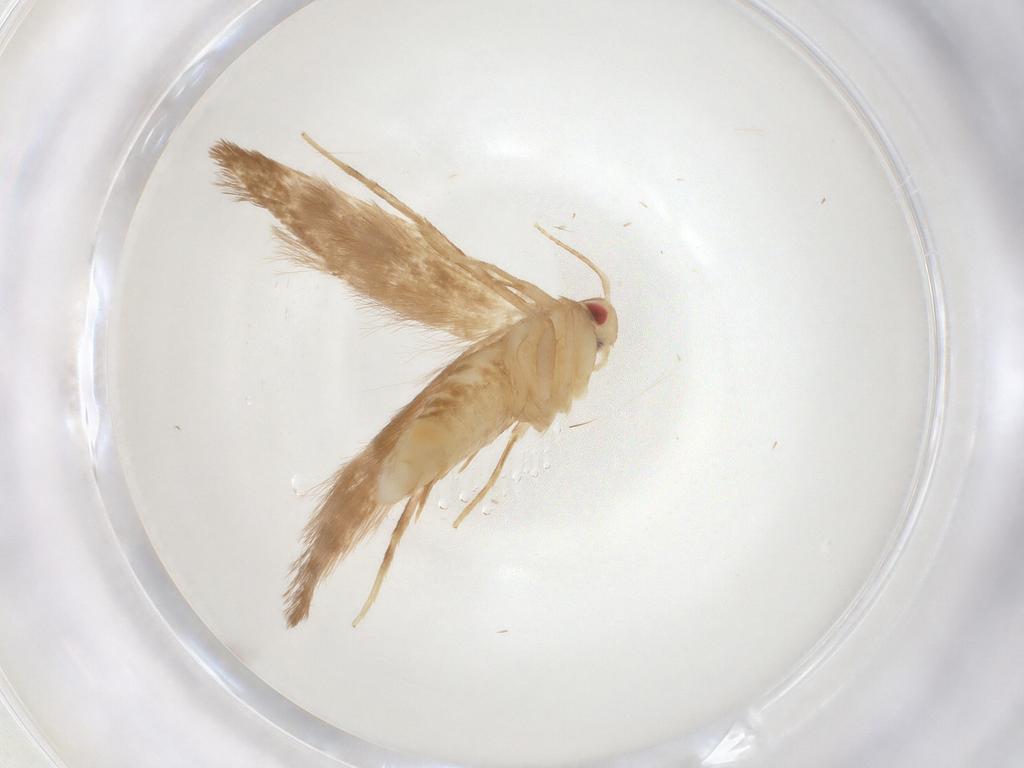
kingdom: Animalia
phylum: Arthropoda
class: Insecta
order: Lepidoptera
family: Cosmopterigidae
